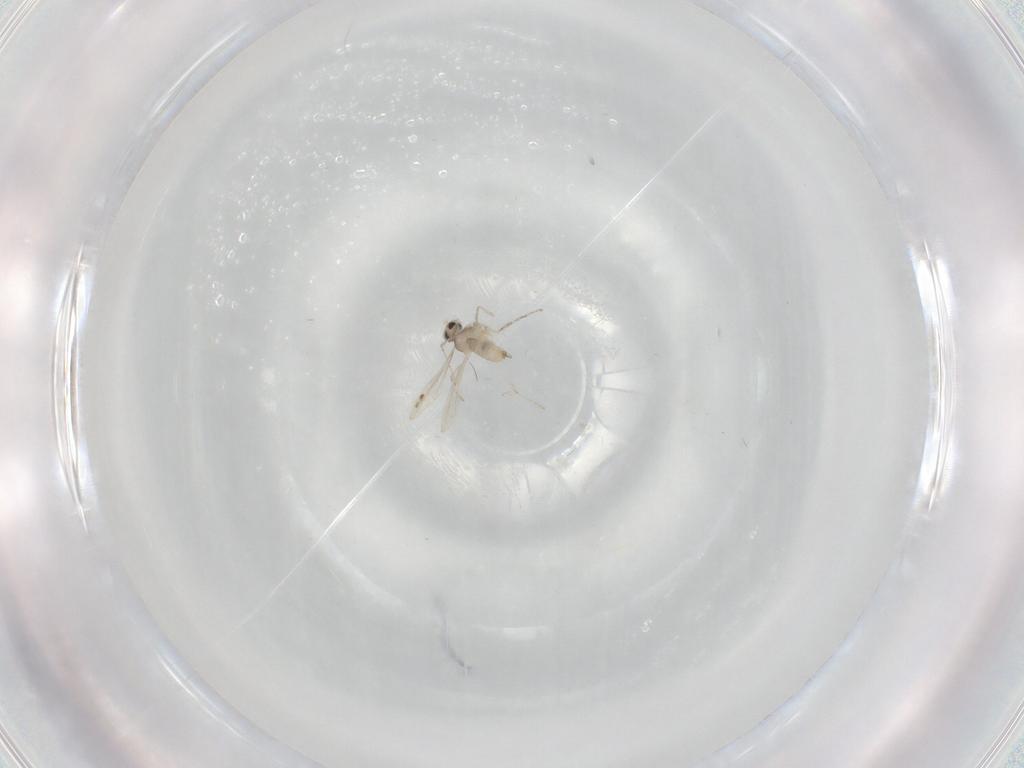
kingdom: Animalia
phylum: Arthropoda
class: Insecta
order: Diptera
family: Cecidomyiidae
